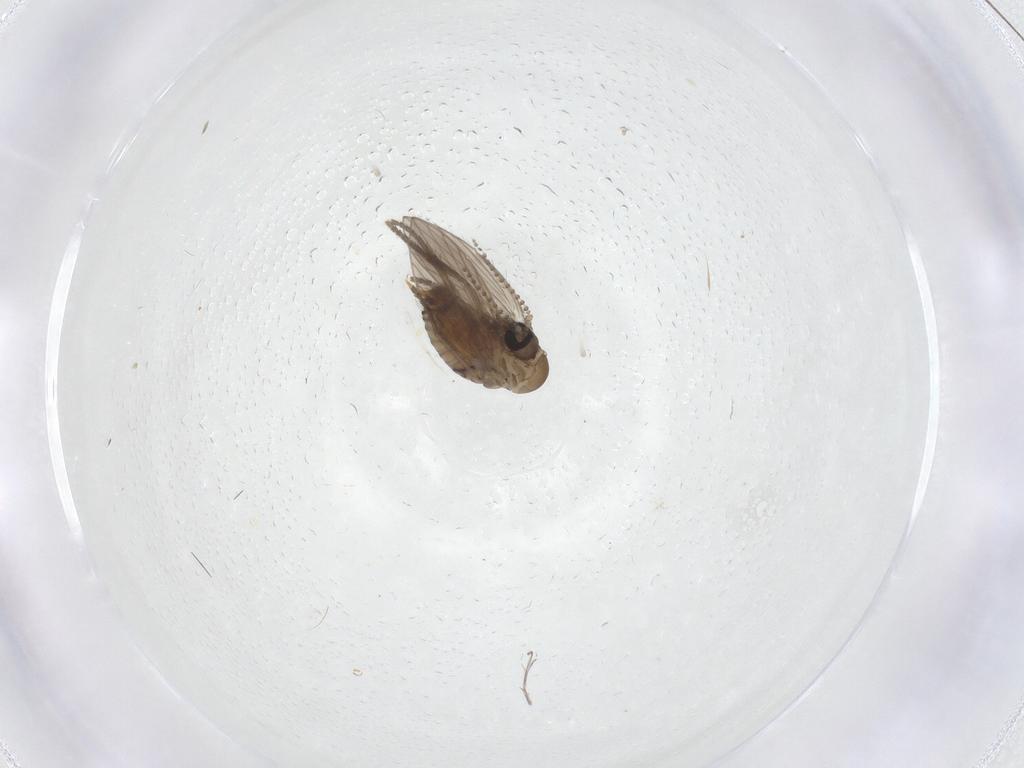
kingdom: Animalia
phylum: Arthropoda
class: Insecta
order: Diptera
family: Psychodidae
